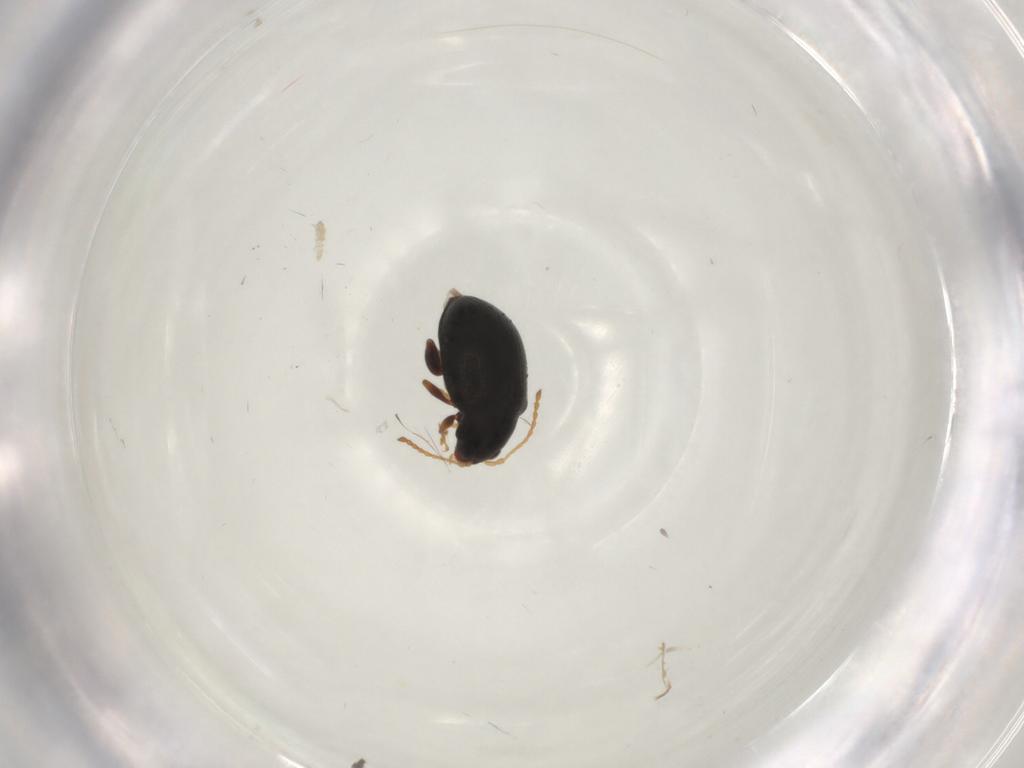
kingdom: Animalia
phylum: Arthropoda
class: Insecta
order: Coleoptera
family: Chrysomelidae
